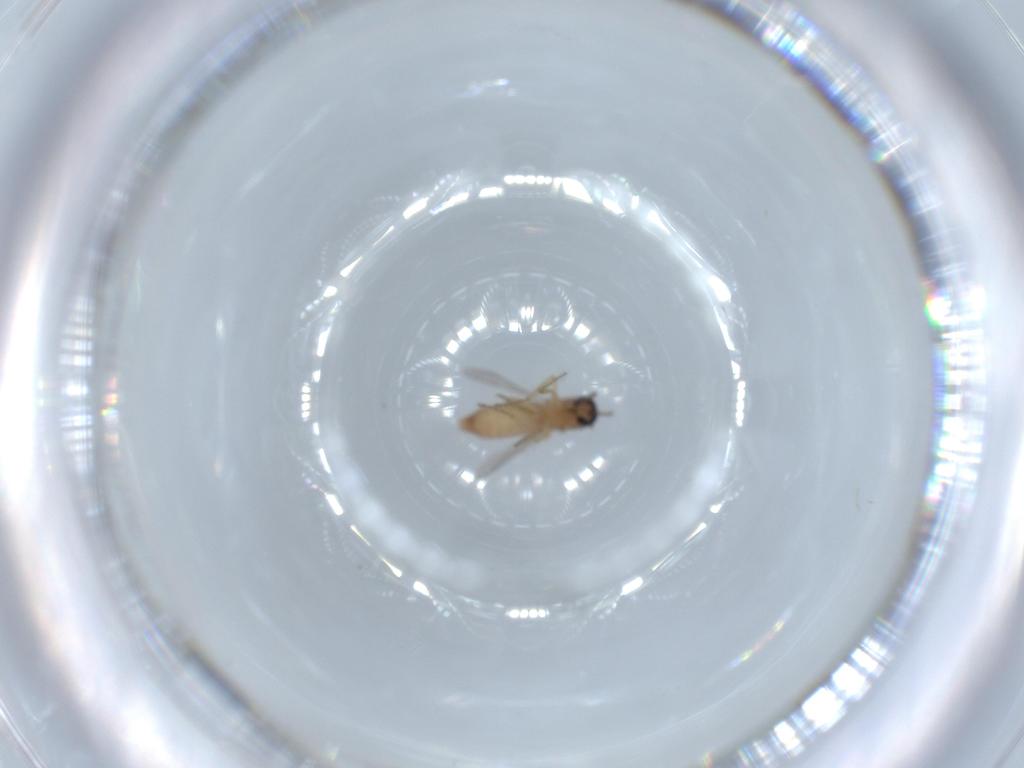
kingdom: Animalia
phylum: Arthropoda
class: Insecta
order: Diptera
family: Ceratopogonidae
